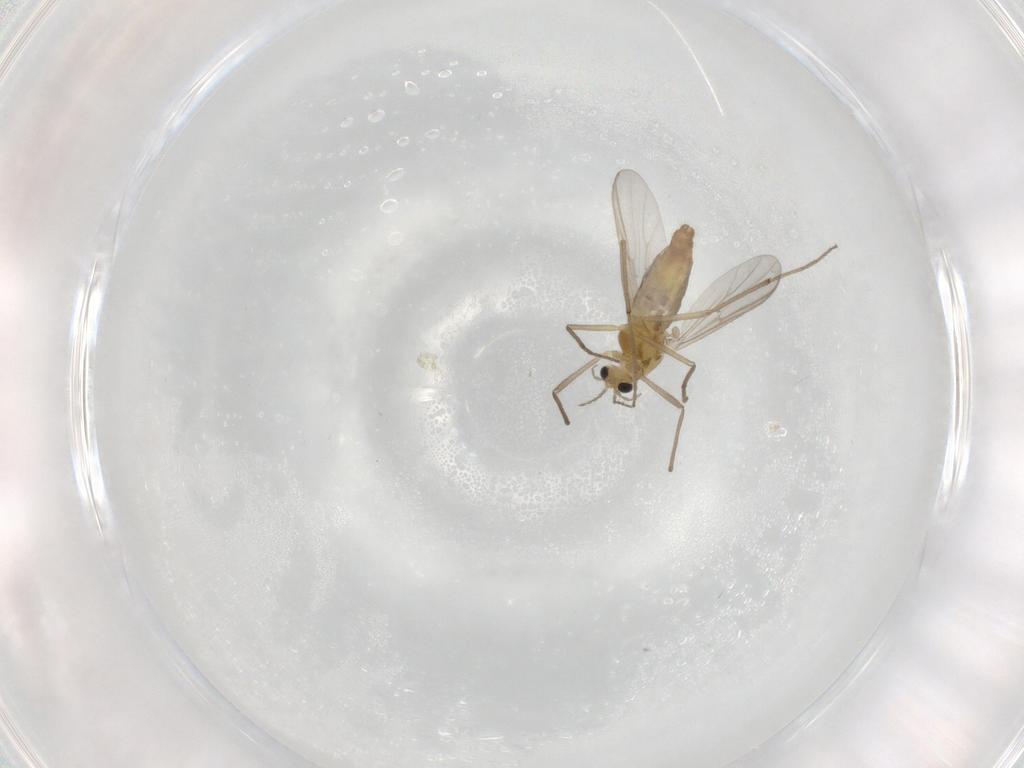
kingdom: Animalia
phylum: Arthropoda
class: Insecta
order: Diptera
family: Chironomidae
